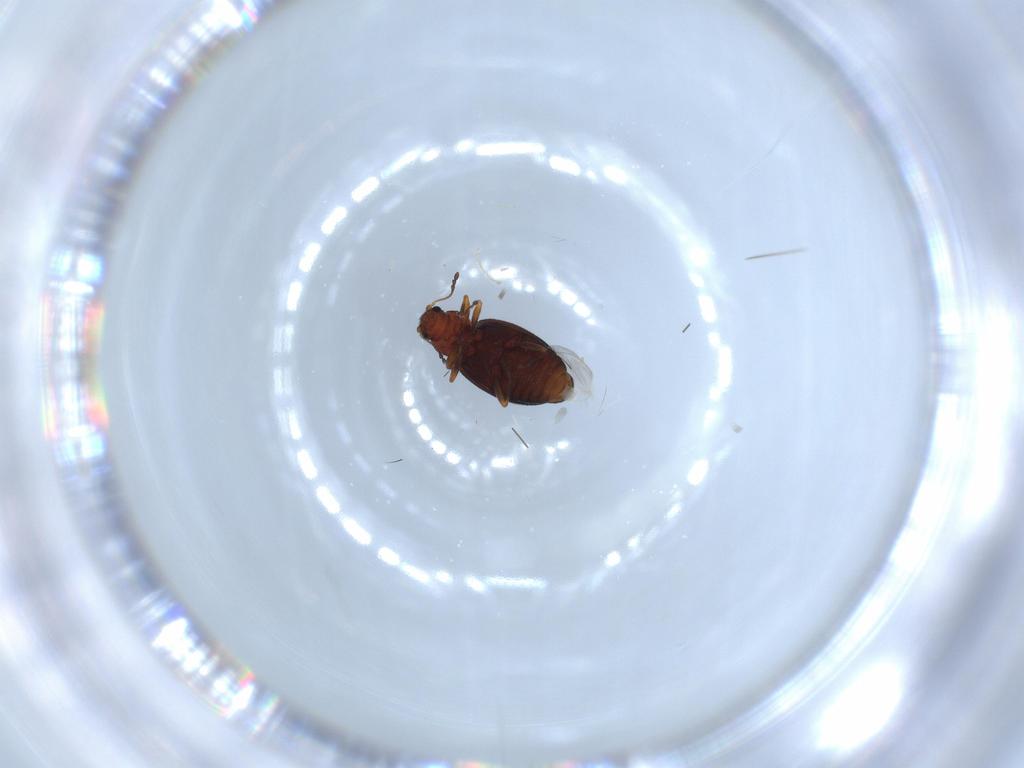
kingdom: Animalia
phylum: Arthropoda
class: Insecta
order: Coleoptera
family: Latridiidae
